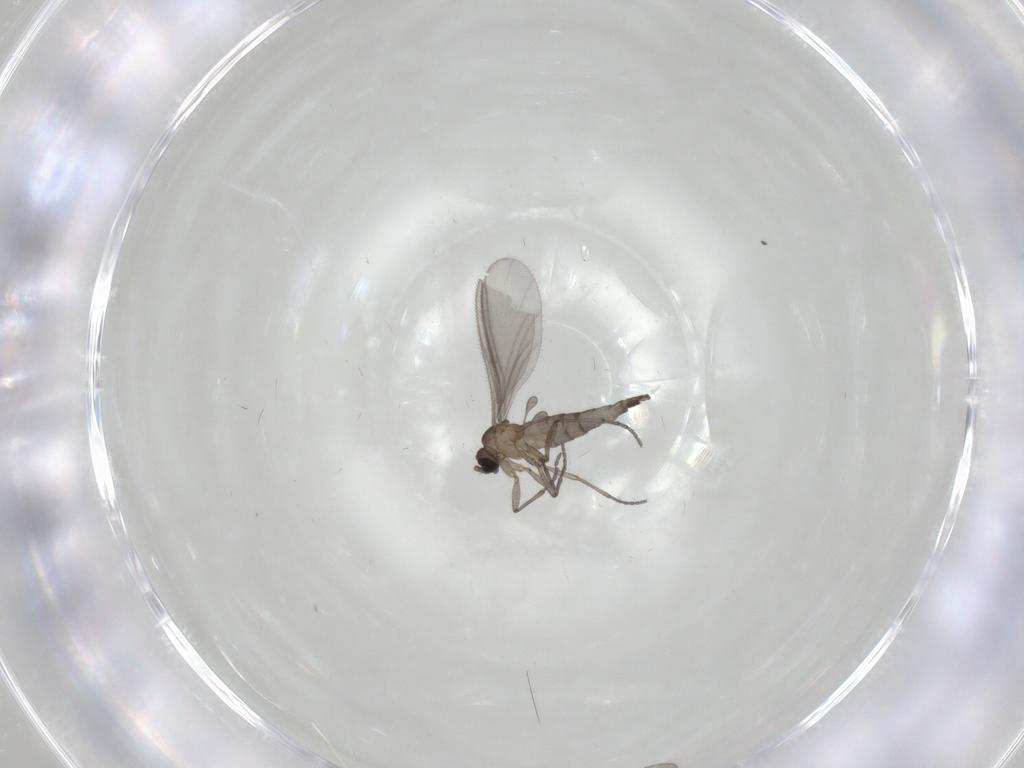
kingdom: Animalia
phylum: Arthropoda
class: Insecta
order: Diptera
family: Sciaridae
